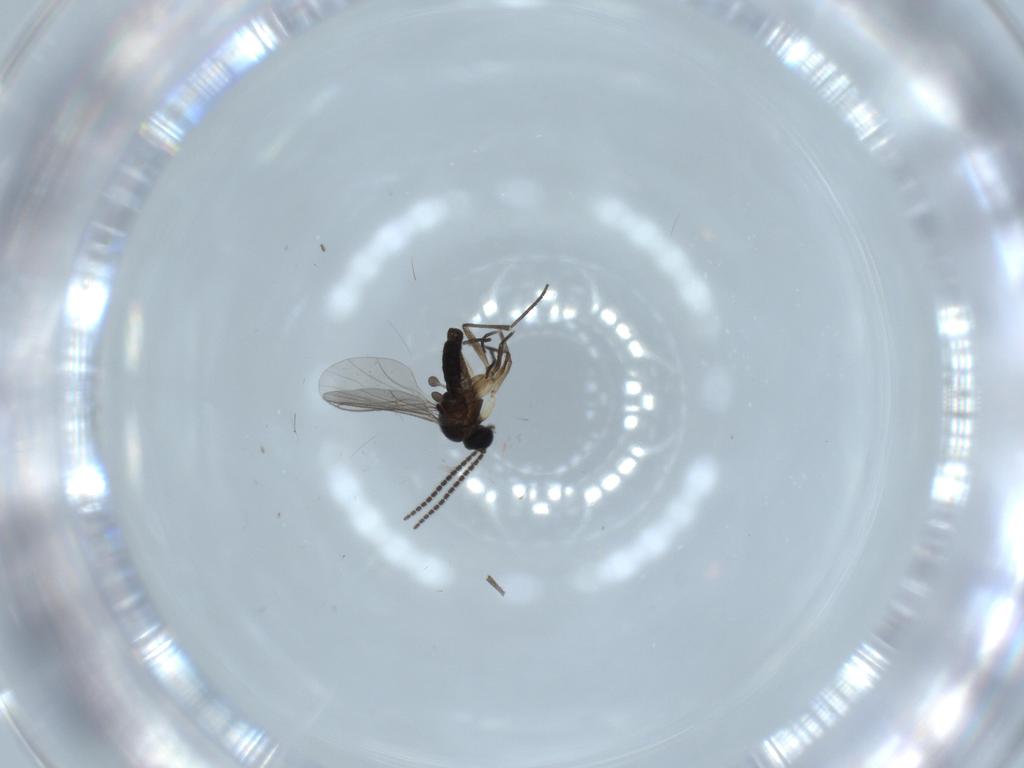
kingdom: Animalia
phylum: Arthropoda
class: Insecta
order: Diptera
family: Sciaridae
